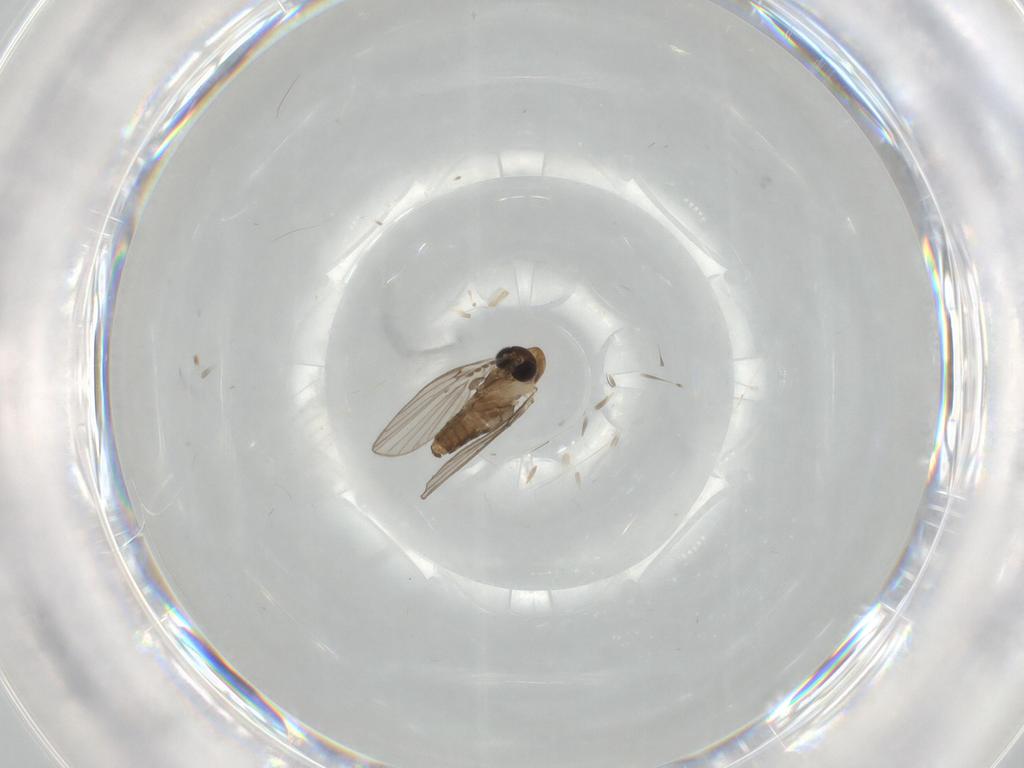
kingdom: Animalia
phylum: Arthropoda
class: Insecta
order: Diptera
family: Psychodidae
